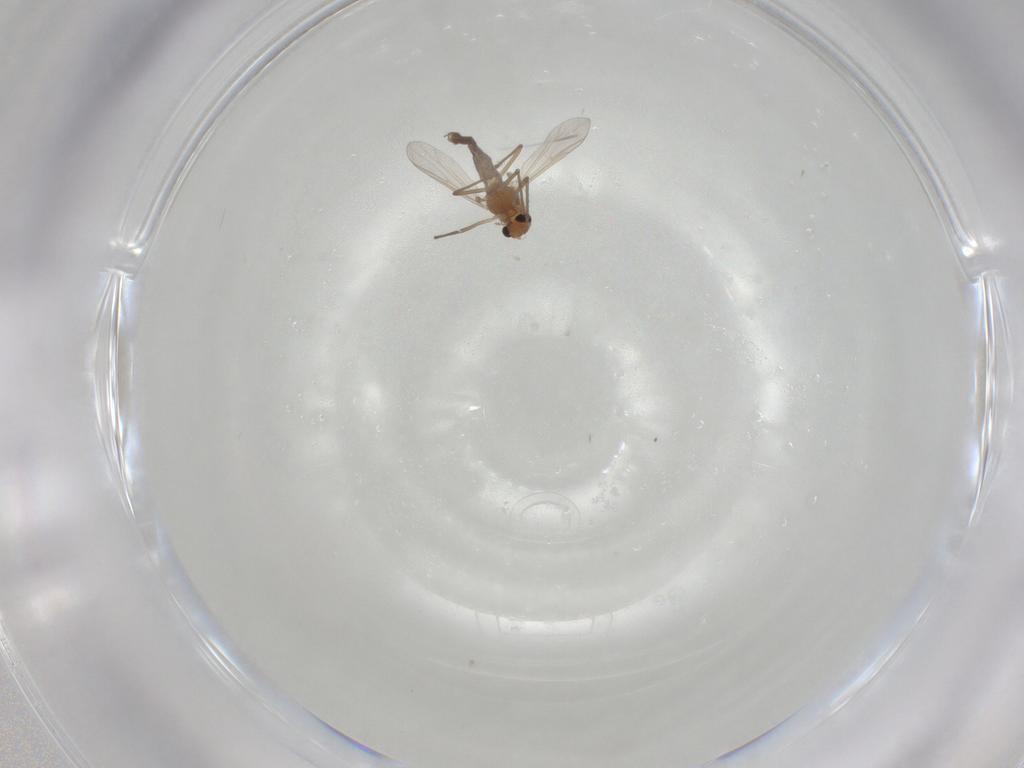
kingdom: Animalia
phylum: Arthropoda
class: Insecta
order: Diptera
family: Chironomidae
